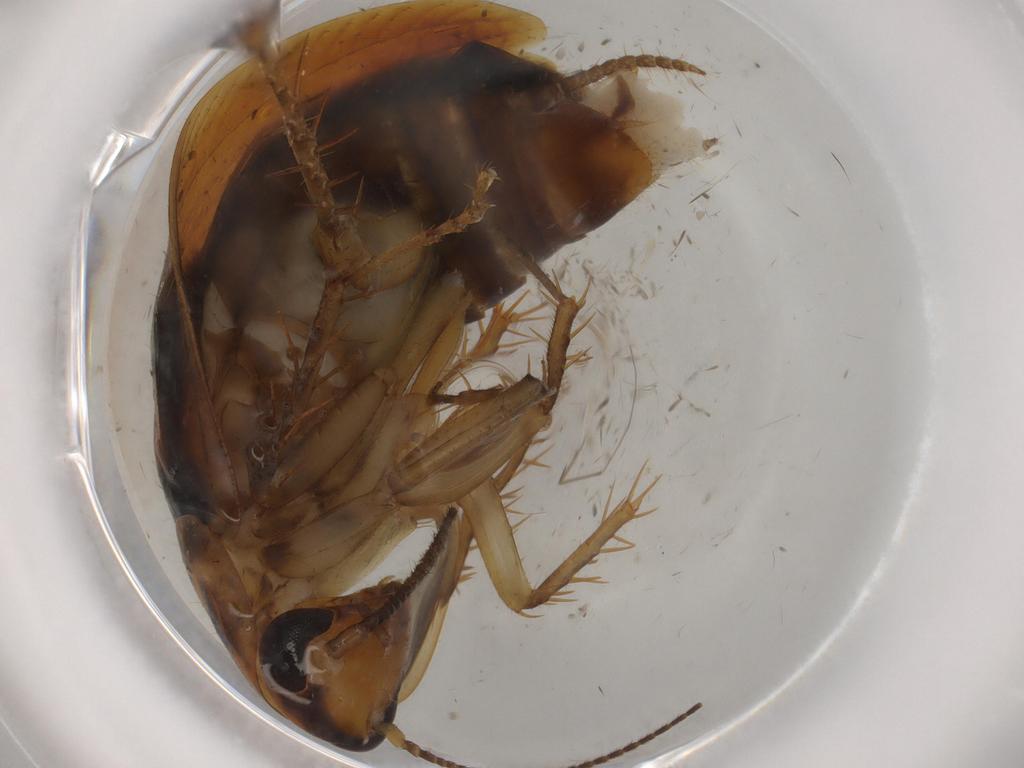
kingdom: Animalia
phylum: Arthropoda
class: Insecta
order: Blattodea
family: Ectobiidae
